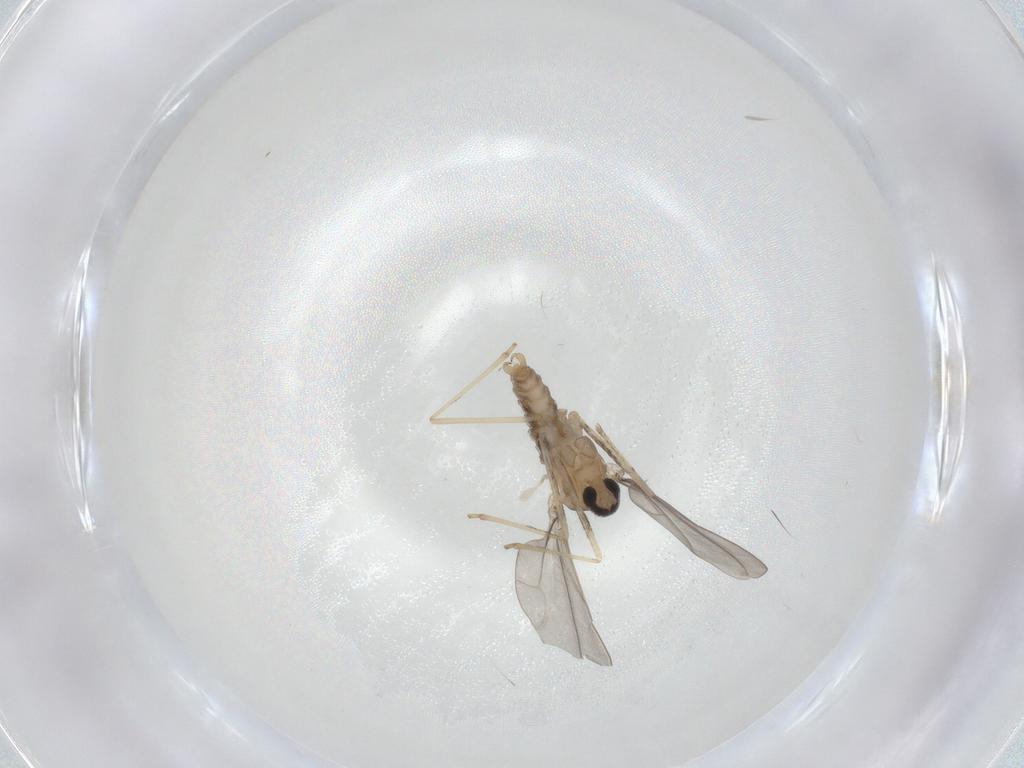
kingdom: Animalia
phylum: Arthropoda
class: Insecta
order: Diptera
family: Cecidomyiidae
